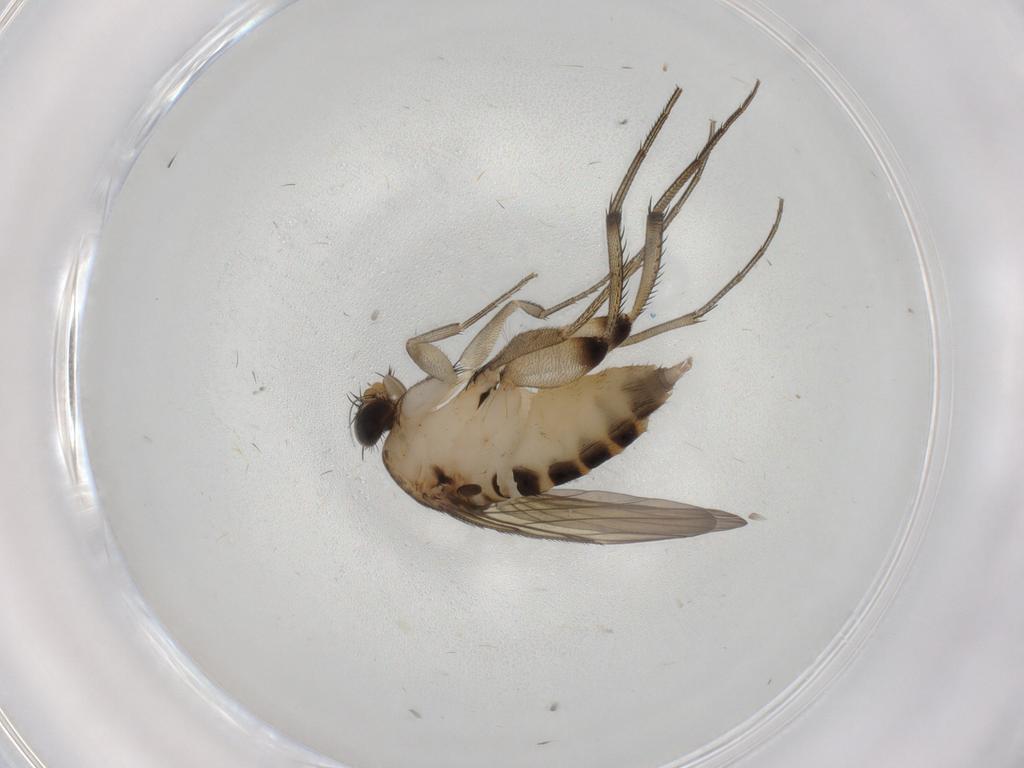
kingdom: Animalia
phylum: Arthropoda
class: Insecta
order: Diptera
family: Phoridae
